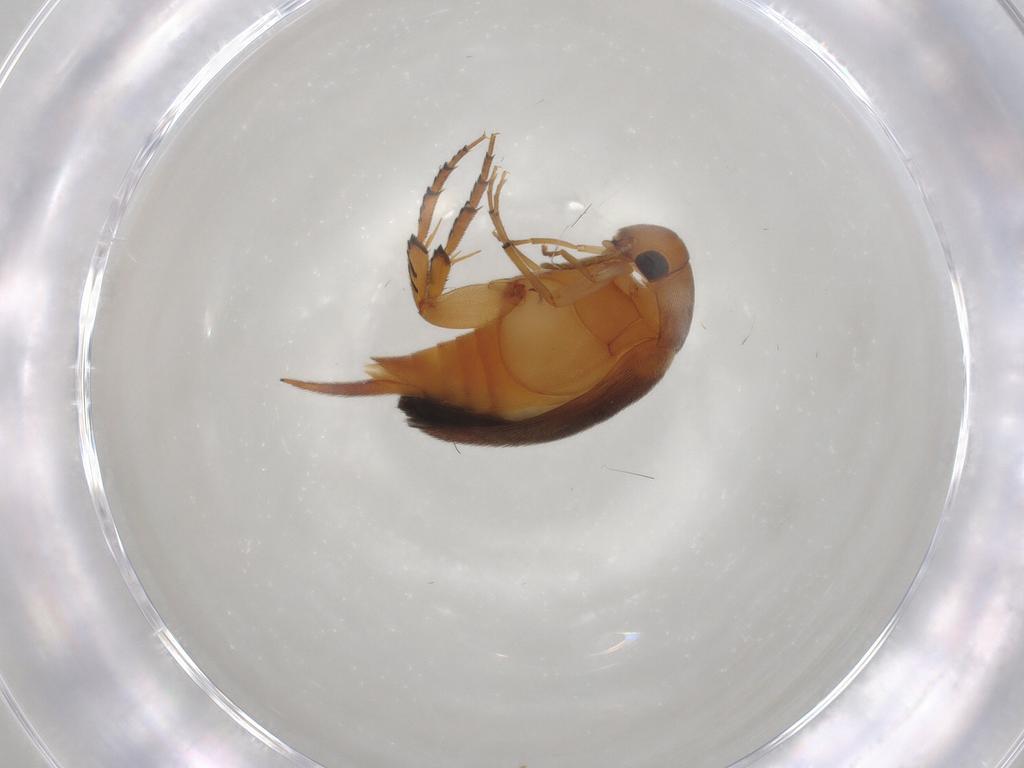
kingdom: Animalia
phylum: Arthropoda
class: Insecta
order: Coleoptera
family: Mordellidae
